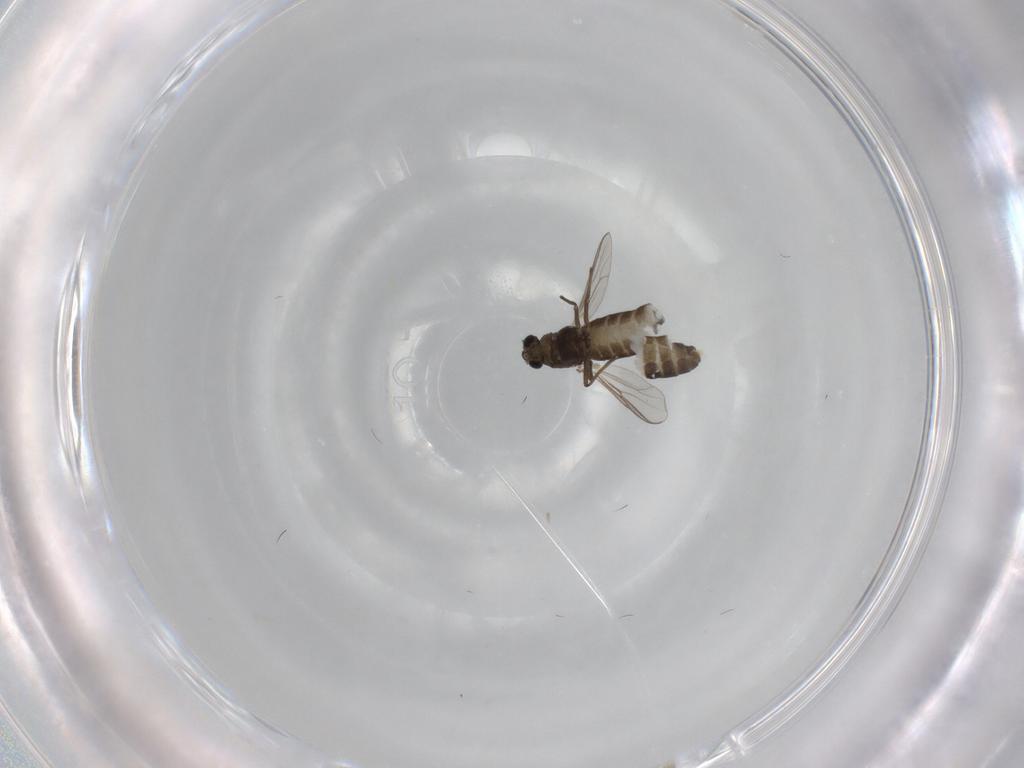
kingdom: Animalia
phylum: Arthropoda
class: Insecta
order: Diptera
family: Chironomidae
